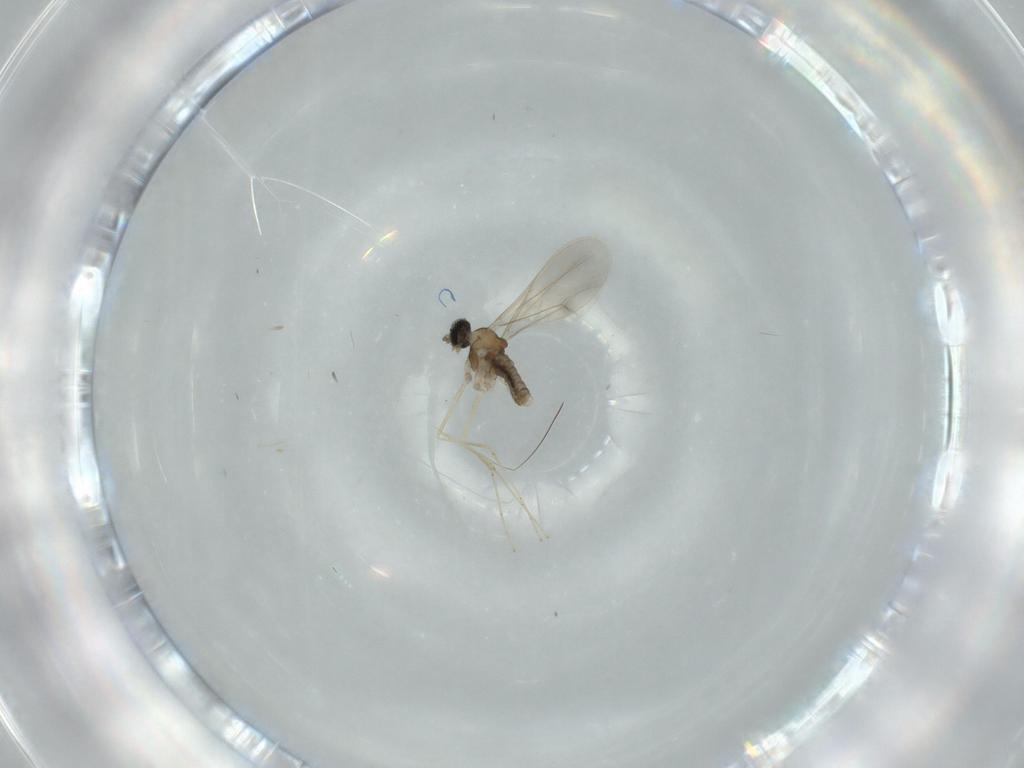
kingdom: Animalia
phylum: Arthropoda
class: Insecta
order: Diptera
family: Cecidomyiidae
